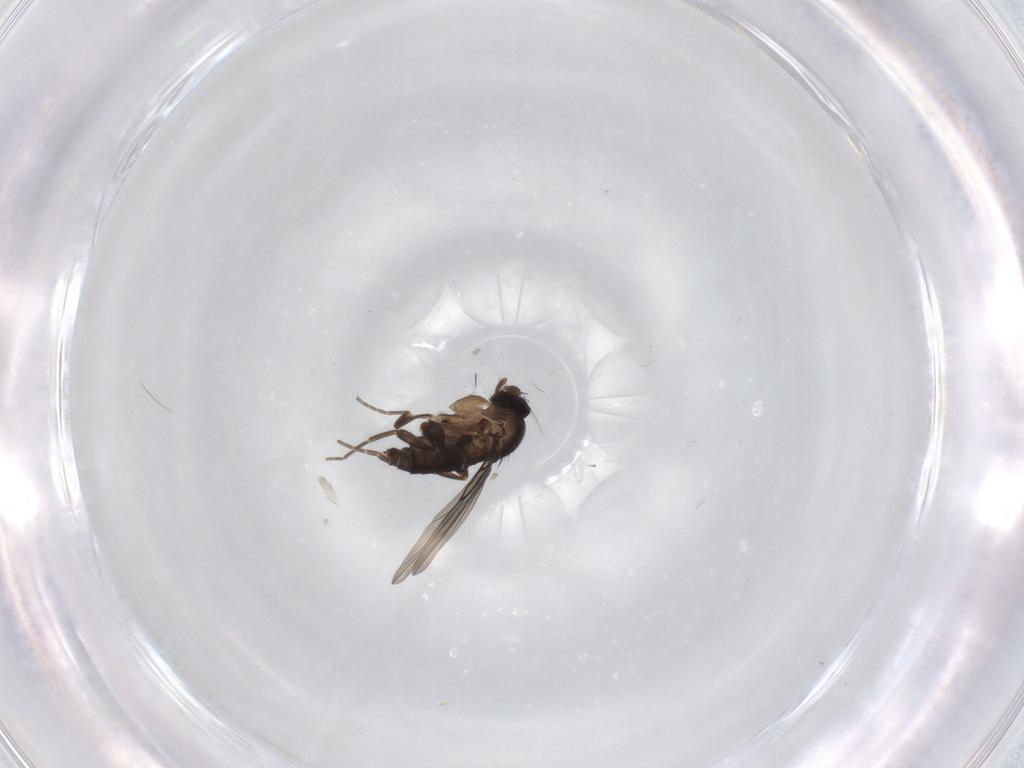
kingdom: Animalia
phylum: Arthropoda
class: Insecta
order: Diptera
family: Phoridae
